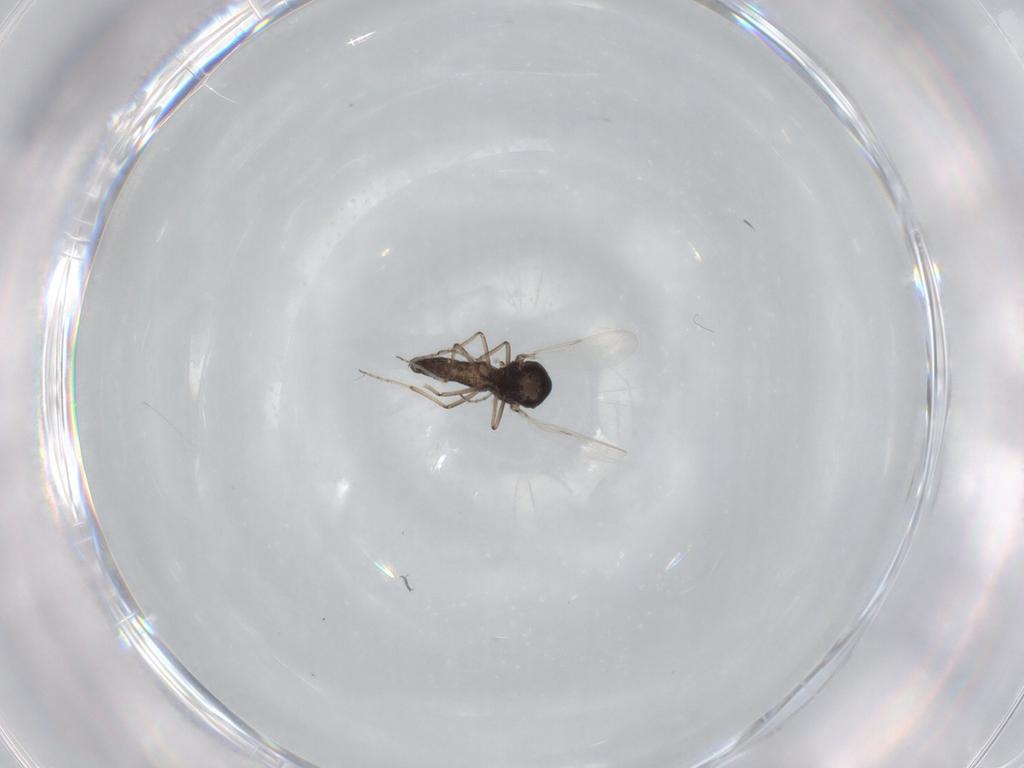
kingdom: Animalia
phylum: Arthropoda
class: Insecta
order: Diptera
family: Ceratopogonidae
